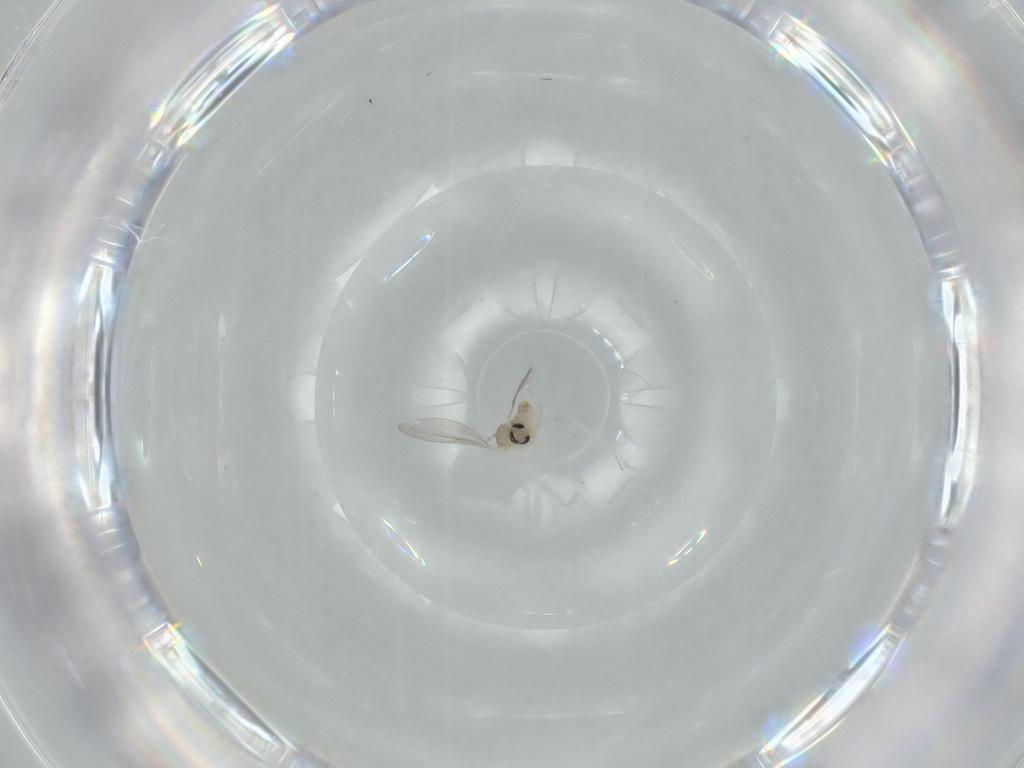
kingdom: Animalia
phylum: Arthropoda
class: Insecta
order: Diptera
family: Cecidomyiidae
